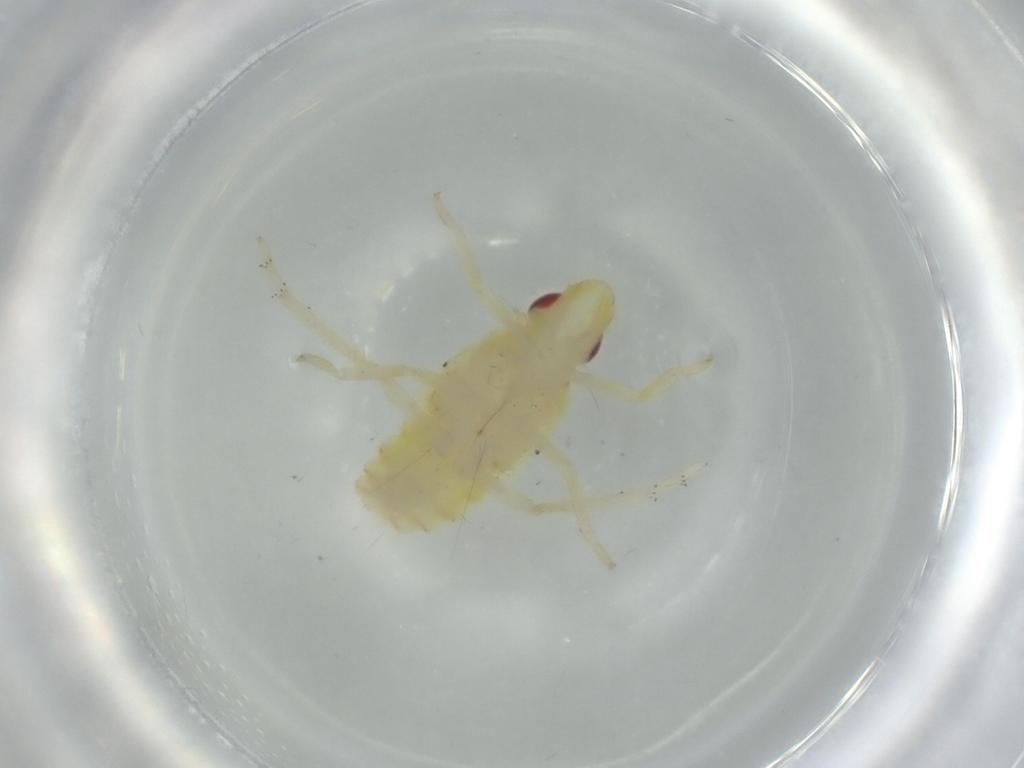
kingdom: Animalia
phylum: Arthropoda
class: Insecta
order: Hemiptera
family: Tropiduchidae
